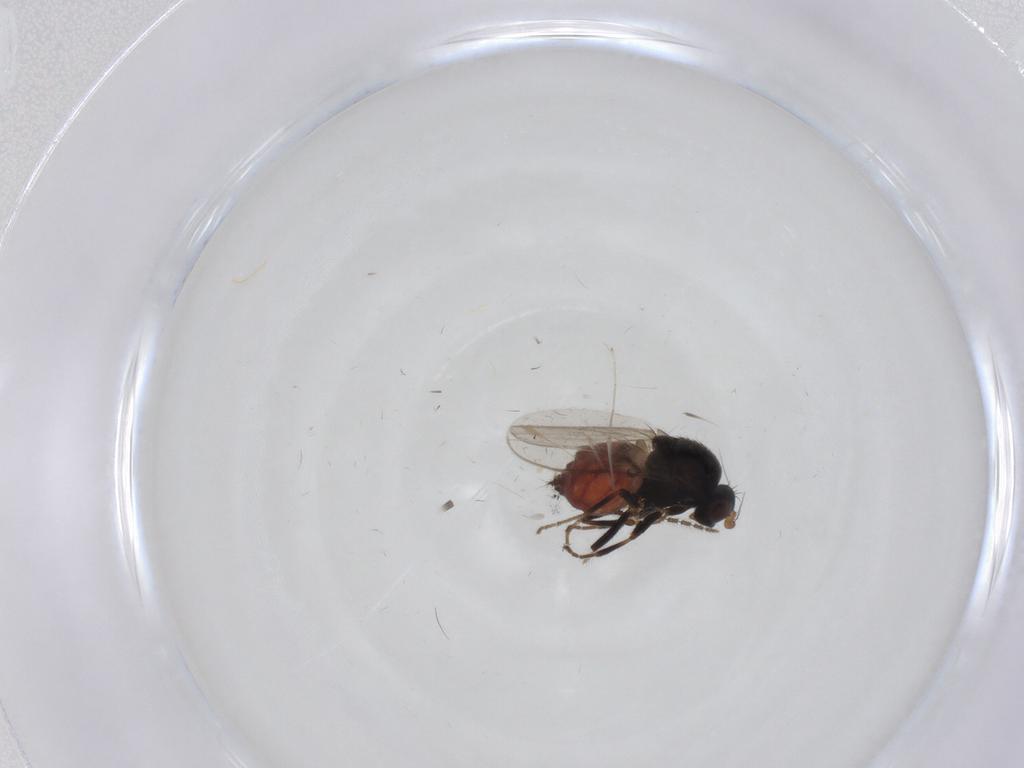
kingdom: Animalia
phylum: Arthropoda
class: Insecta
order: Diptera
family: Sphaeroceridae
